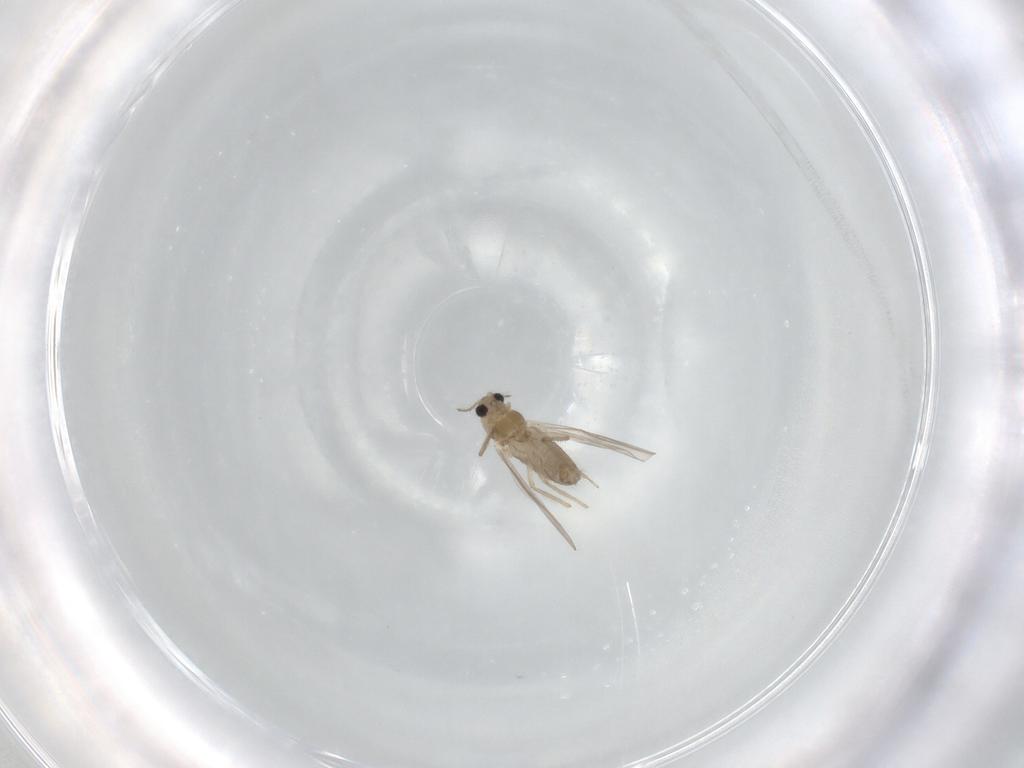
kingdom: Animalia
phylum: Arthropoda
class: Insecta
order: Diptera
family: Chironomidae
